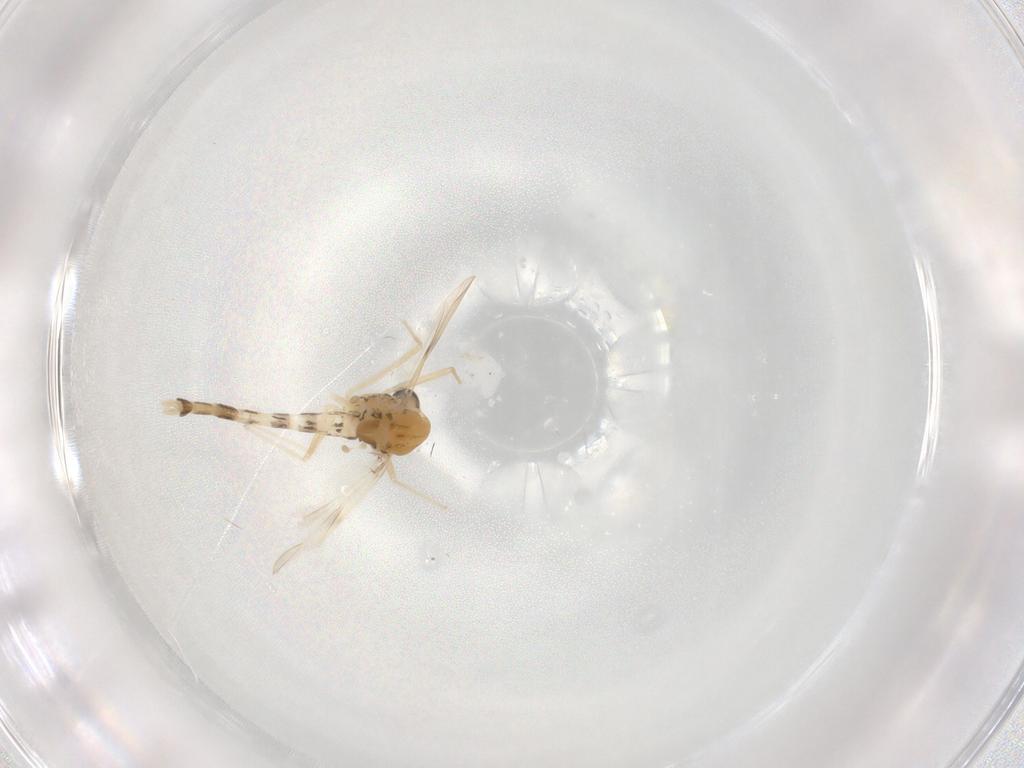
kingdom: Animalia
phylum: Arthropoda
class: Insecta
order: Diptera
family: Chironomidae
